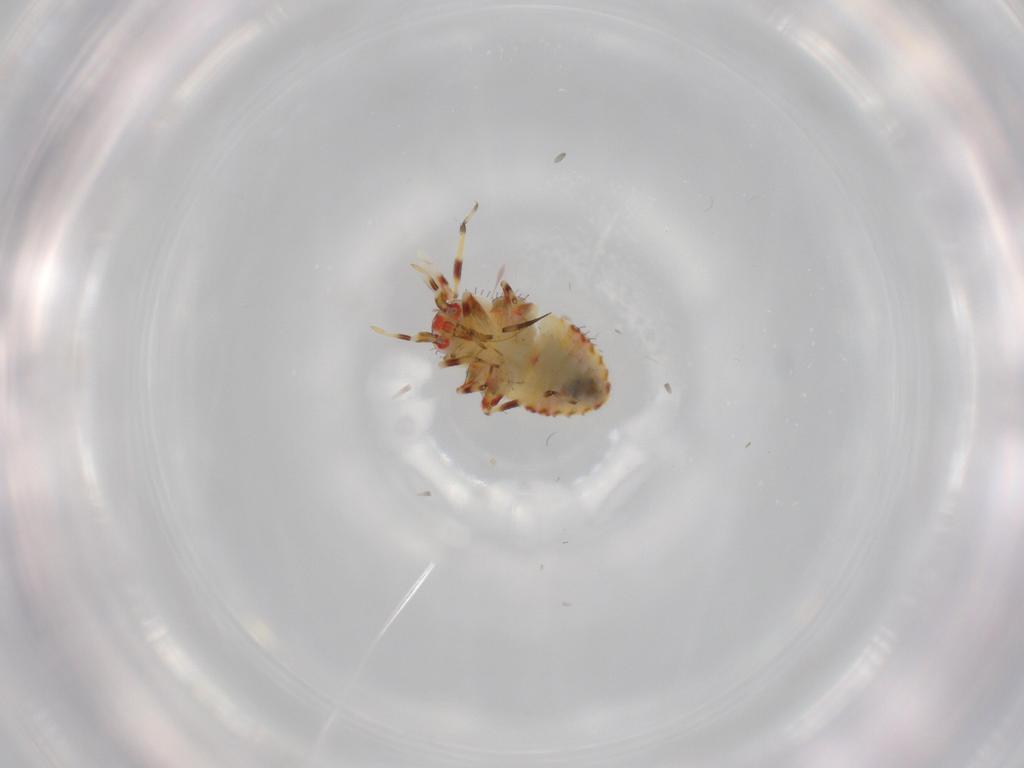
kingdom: Animalia
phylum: Arthropoda
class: Insecta
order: Hemiptera
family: Miridae
